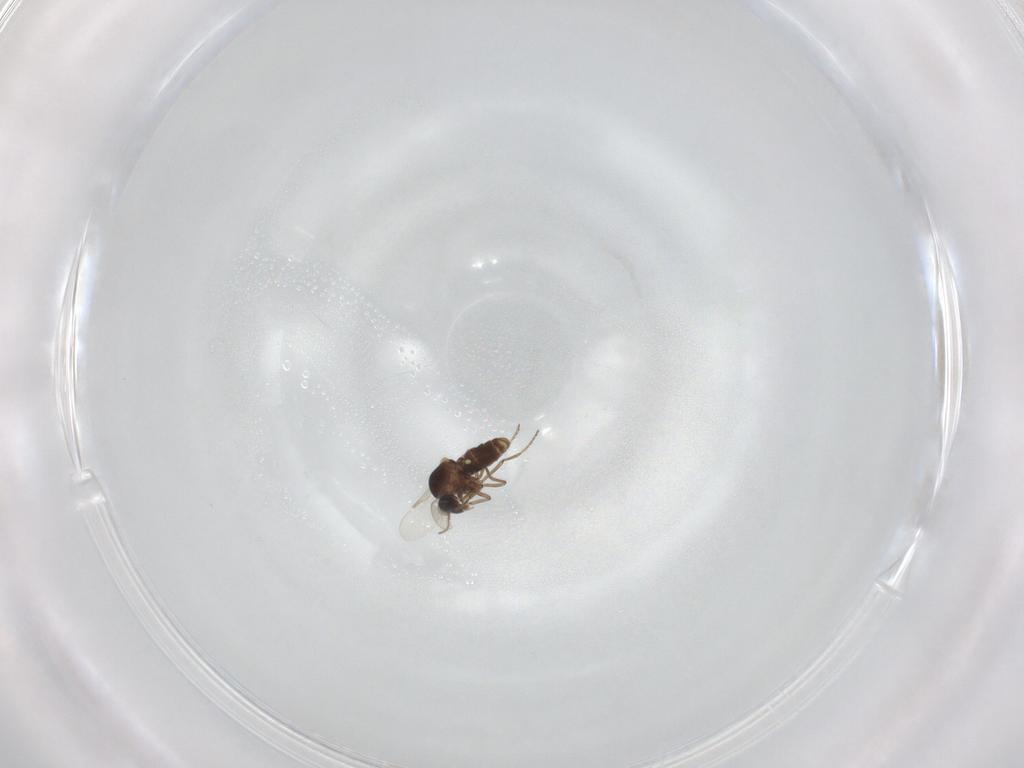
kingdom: Animalia
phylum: Arthropoda
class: Insecta
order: Diptera
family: Ceratopogonidae
